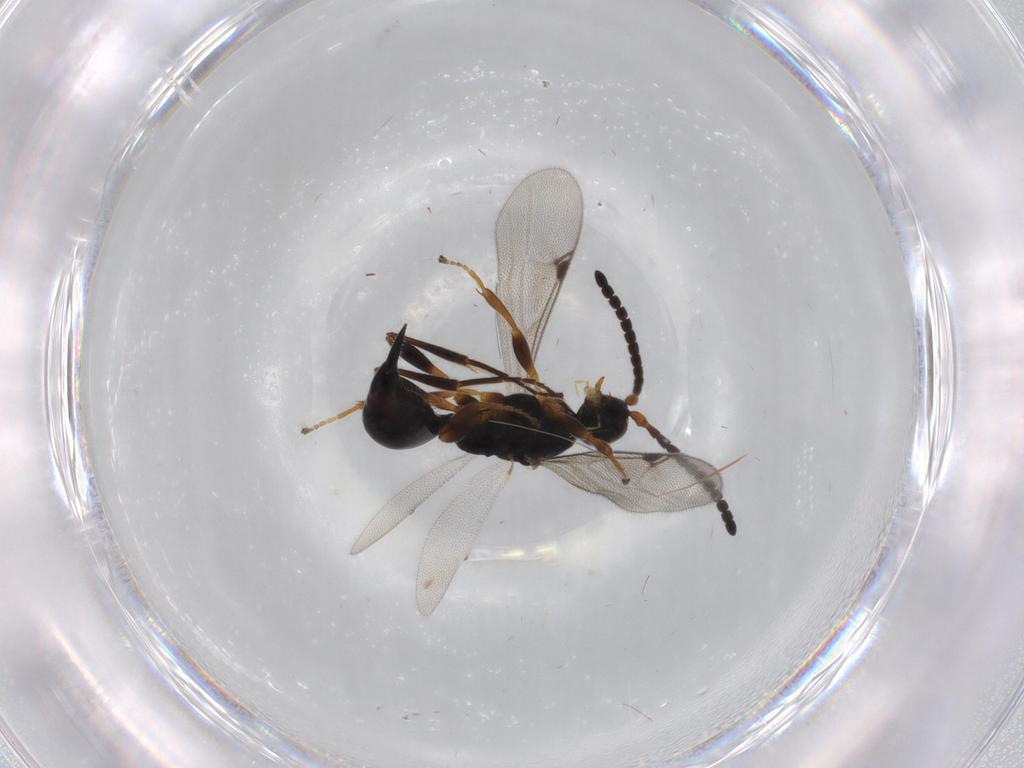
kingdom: Animalia
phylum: Arthropoda
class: Insecta
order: Hymenoptera
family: Proctotrupidae
